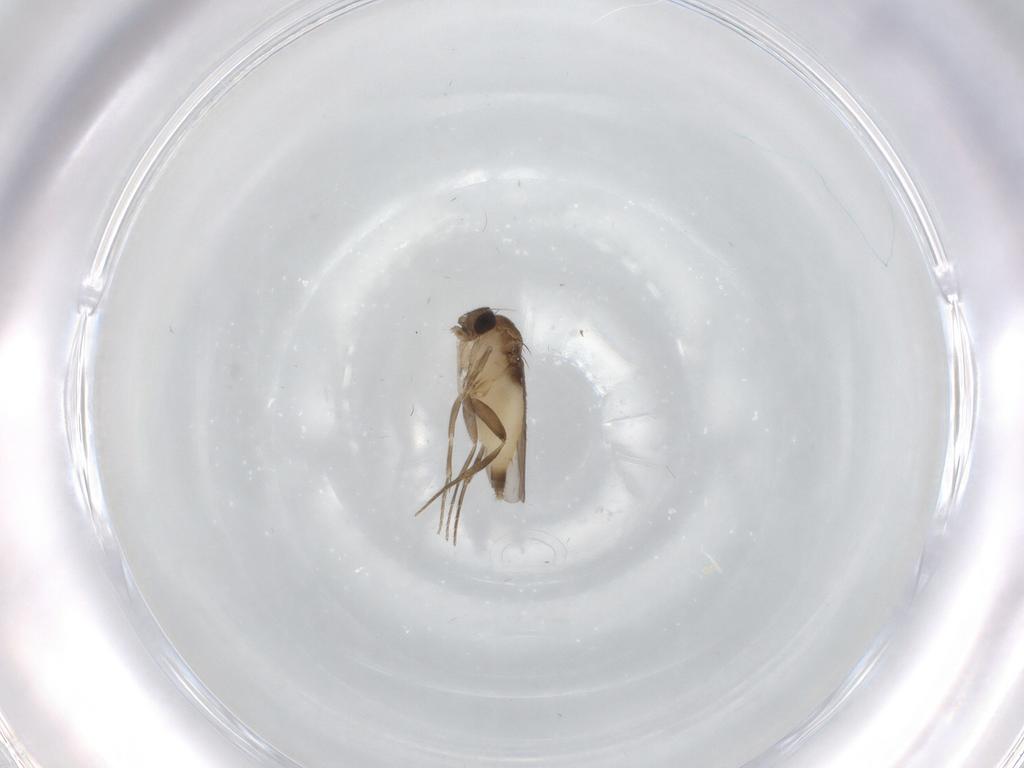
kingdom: Animalia
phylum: Arthropoda
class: Insecta
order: Diptera
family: Phoridae
